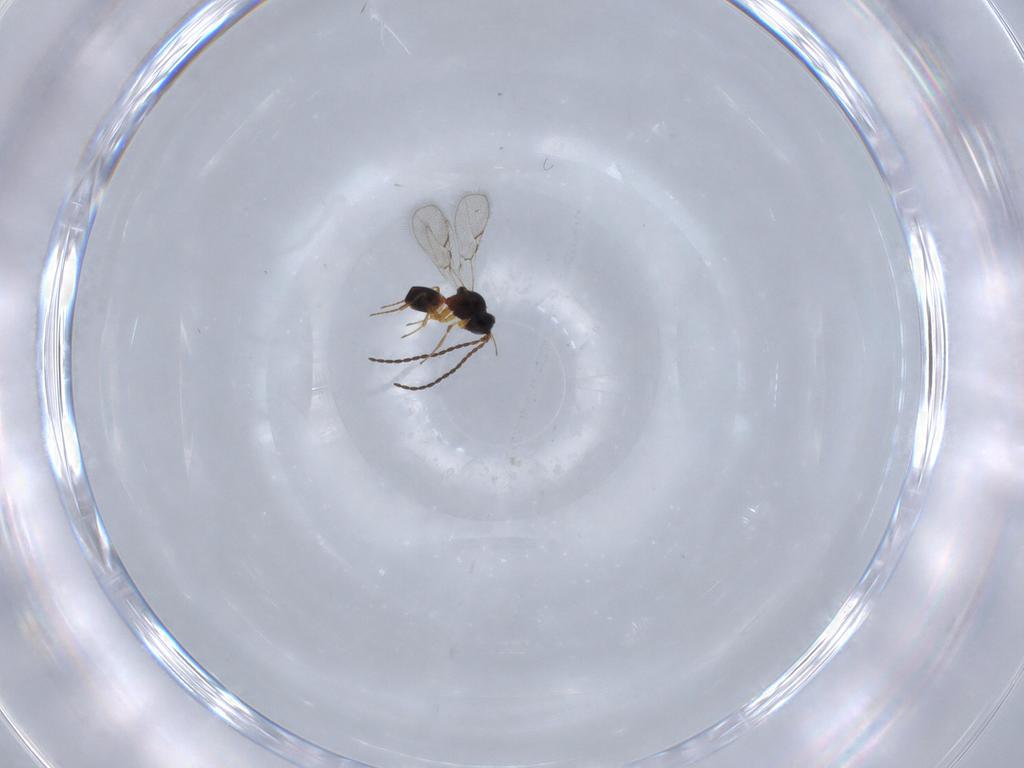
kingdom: Animalia
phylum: Arthropoda
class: Insecta
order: Hymenoptera
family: Figitidae
